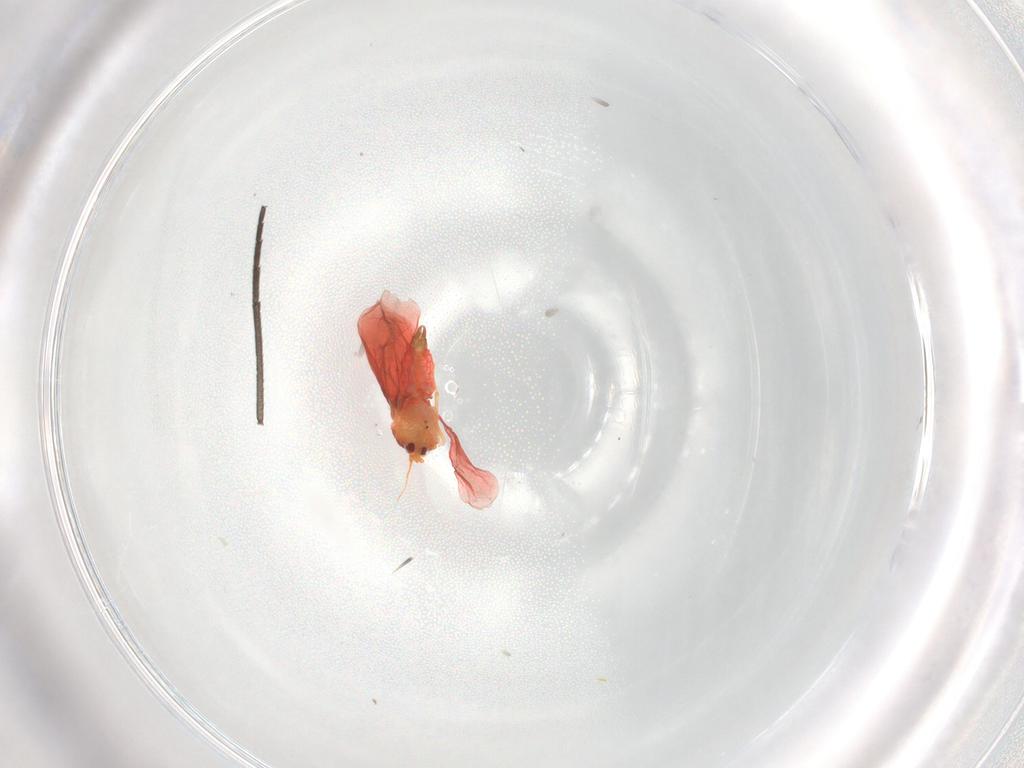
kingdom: Animalia
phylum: Arthropoda
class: Insecta
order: Hemiptera
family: Aleyrodidae
